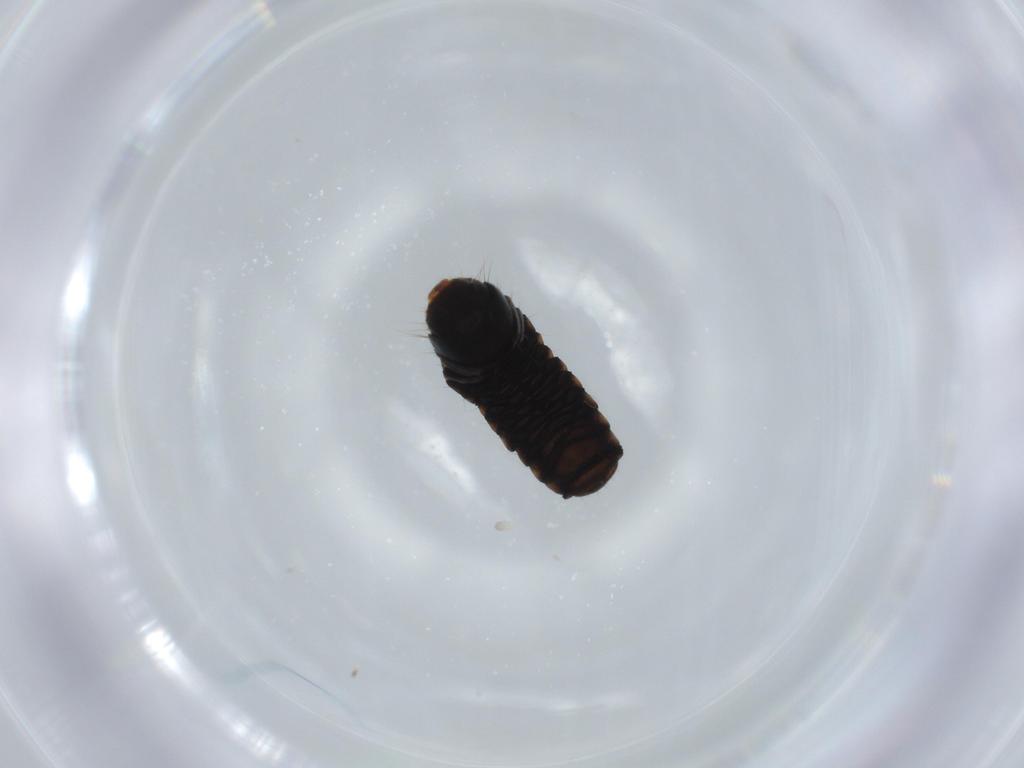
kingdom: Animalia
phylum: Arthropoda
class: Insecta
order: Lepidoptera
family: Psychidae
